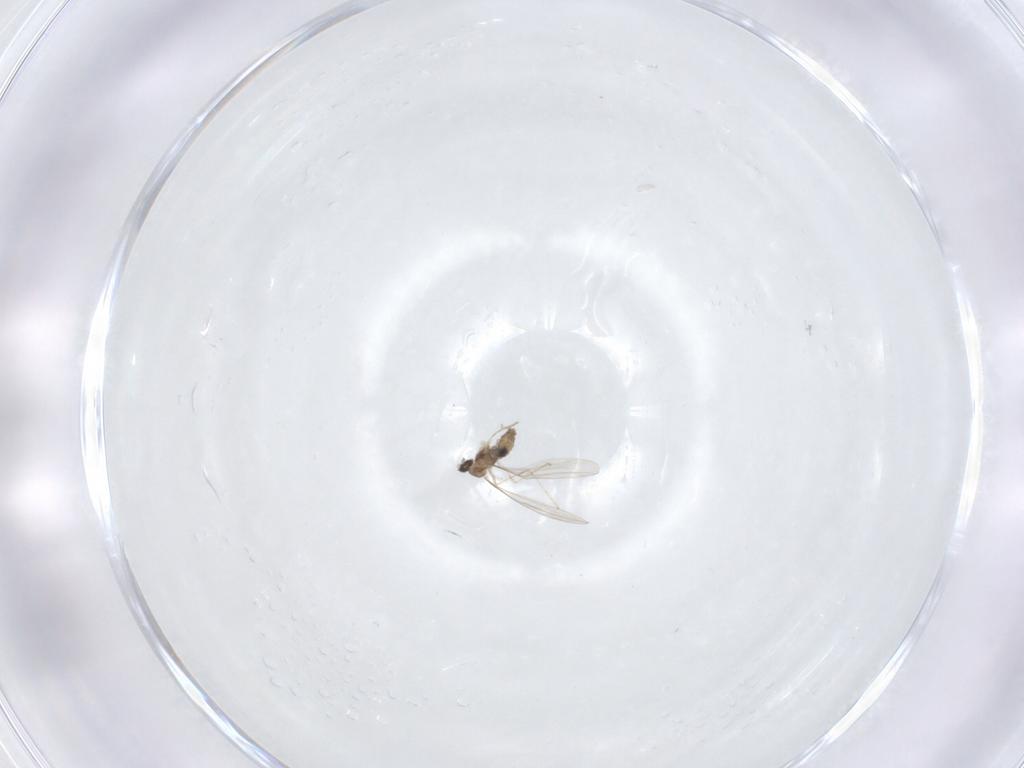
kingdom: Animalia
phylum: Arthropoda
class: Insecta
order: Diptera
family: Cecidomyiidae
